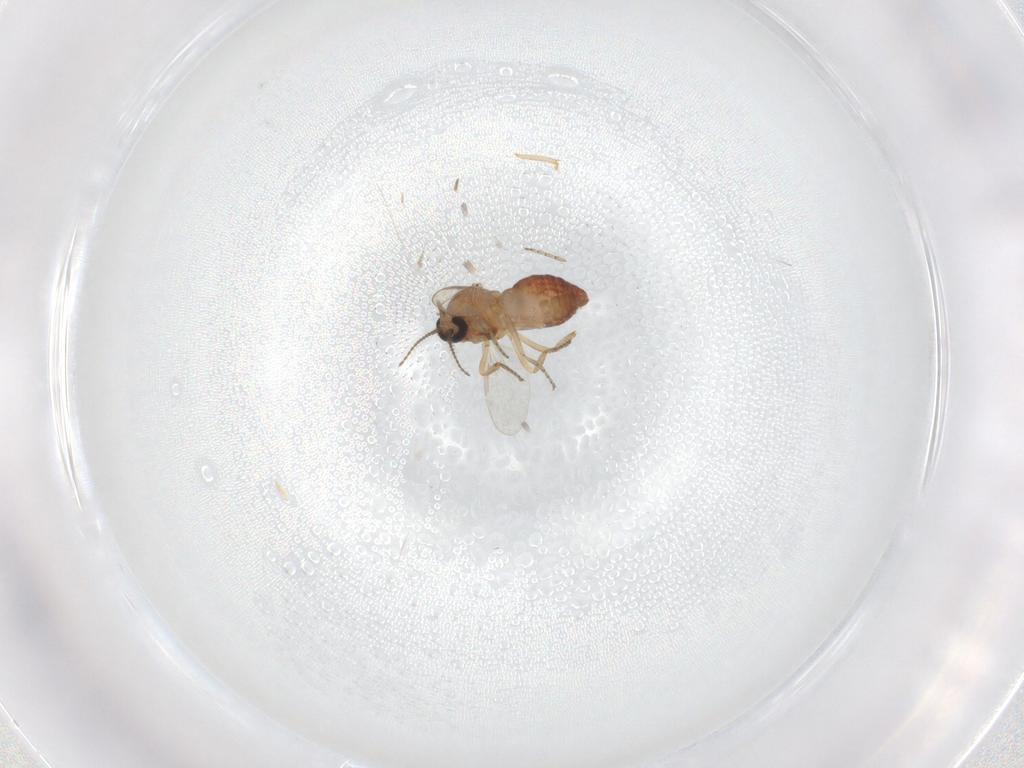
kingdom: Animalia
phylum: Arthropoda
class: Insecta
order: Diptera
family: Ceratopogonidae
